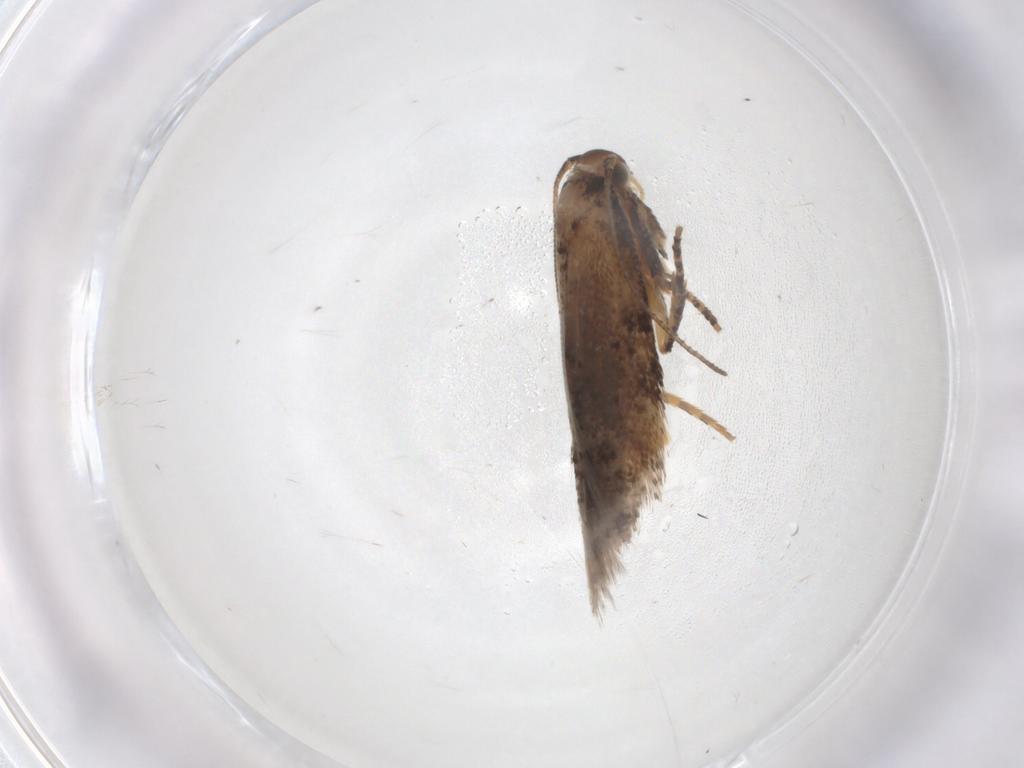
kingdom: Animalia
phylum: Arthropoda
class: Insecta
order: Lepidoptera
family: Gelechiidae
